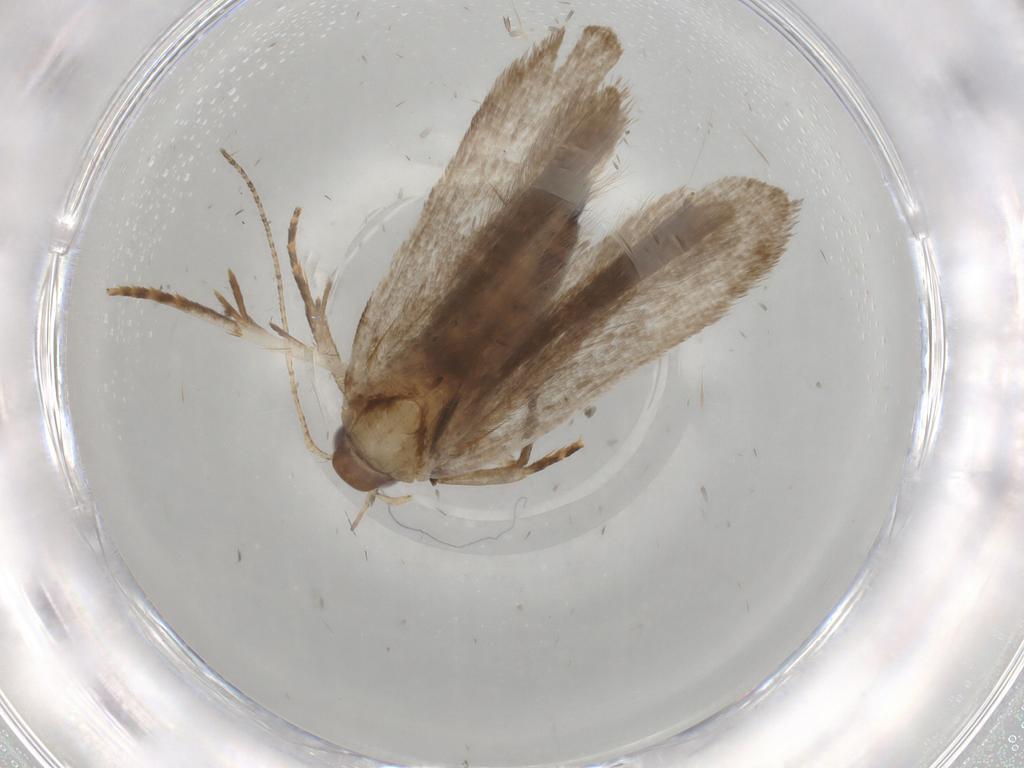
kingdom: Animalia
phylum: Arthropoda
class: Insecta
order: Lepidoptera
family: Gelechiidae
